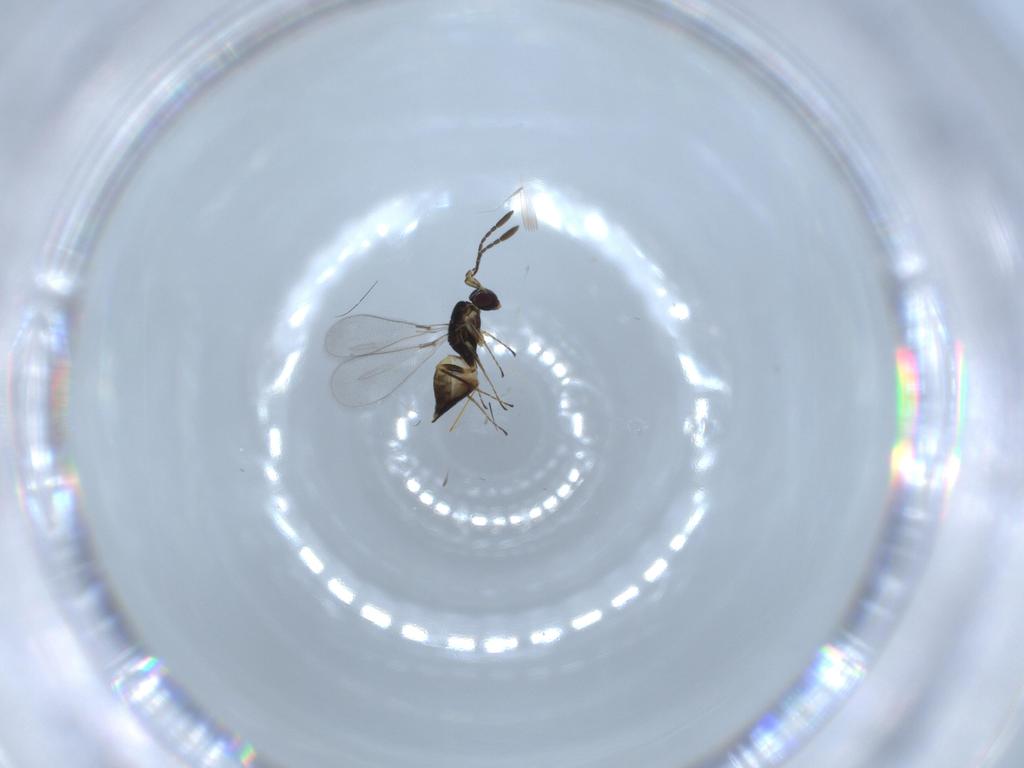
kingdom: Animalia
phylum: Arthropoda
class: Insecta
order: Hymenoptera
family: Mymaridae
